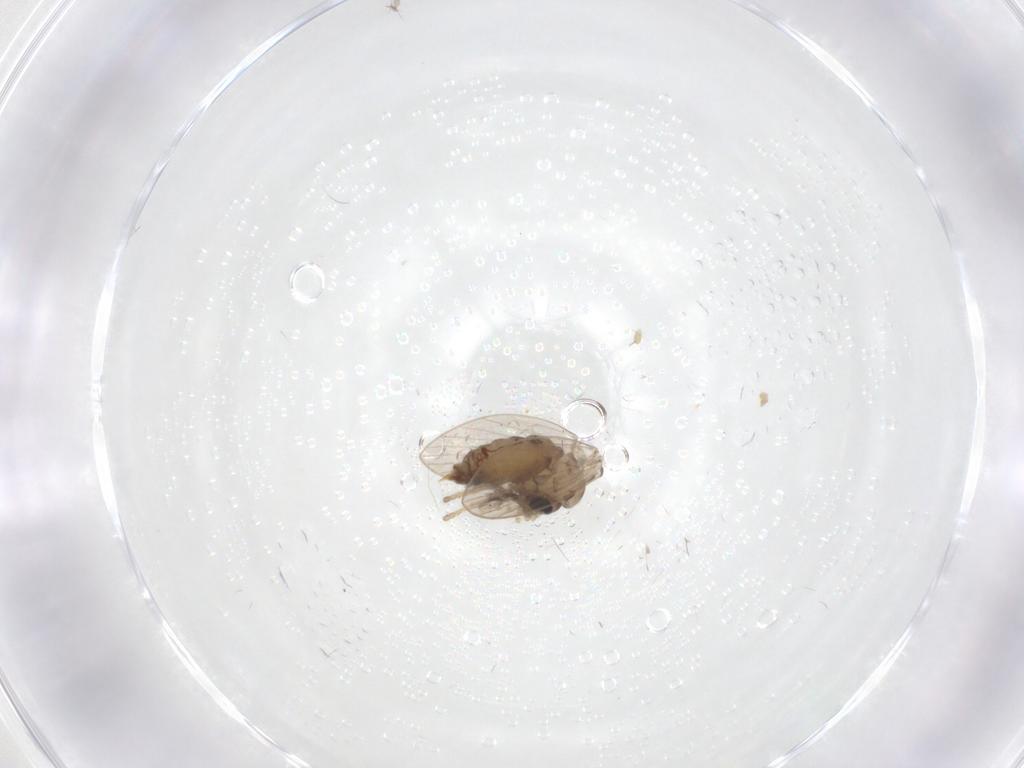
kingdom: Animalia
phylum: Arthropoda
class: Insecta
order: Diptera
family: Psychodidae
